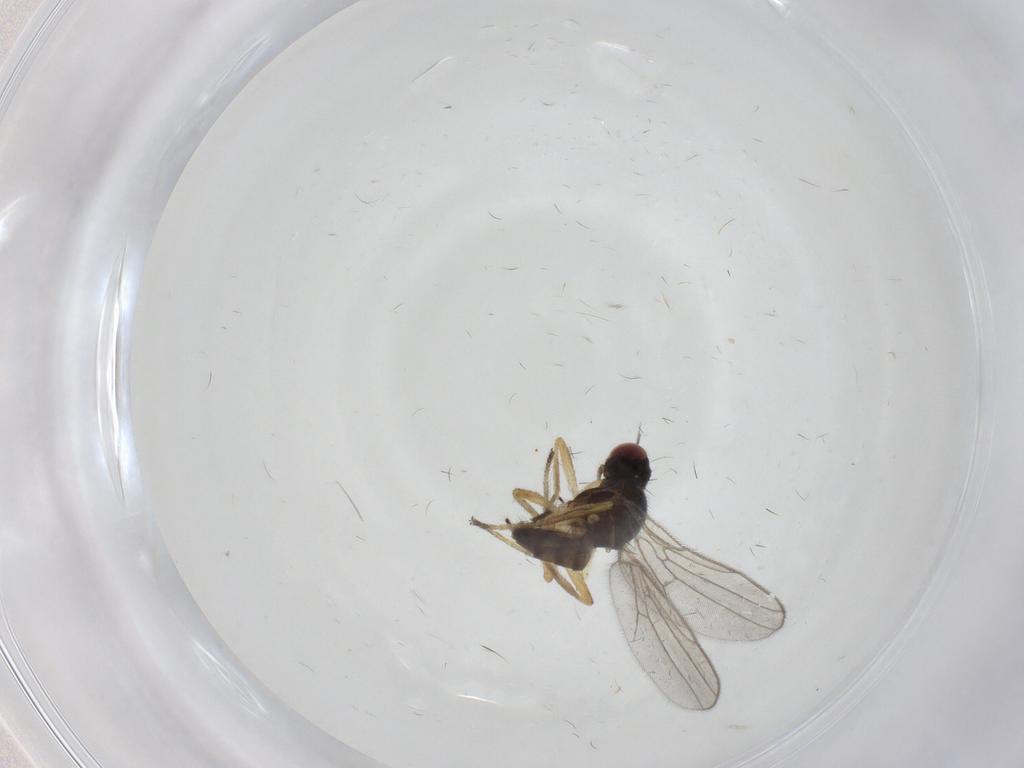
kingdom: Animalia
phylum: Arthropoda
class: Insecta
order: Diptera
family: Chloropidae
